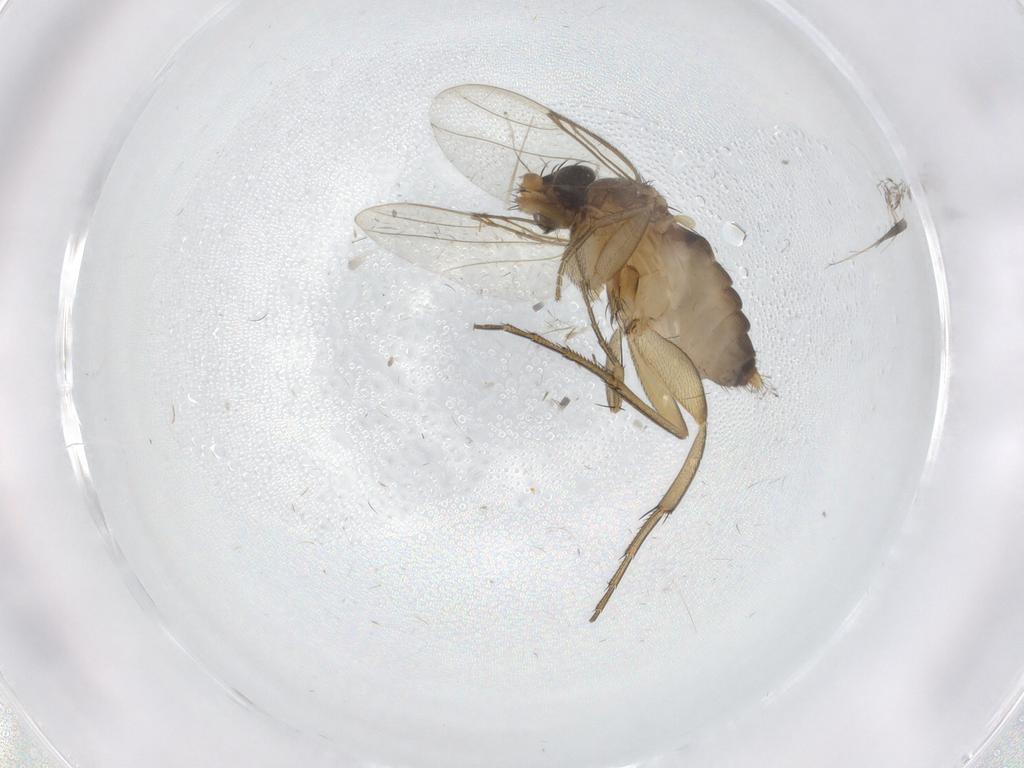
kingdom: Animalia
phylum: Arthropoda
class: Insecta
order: Diptera
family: Phoridae
